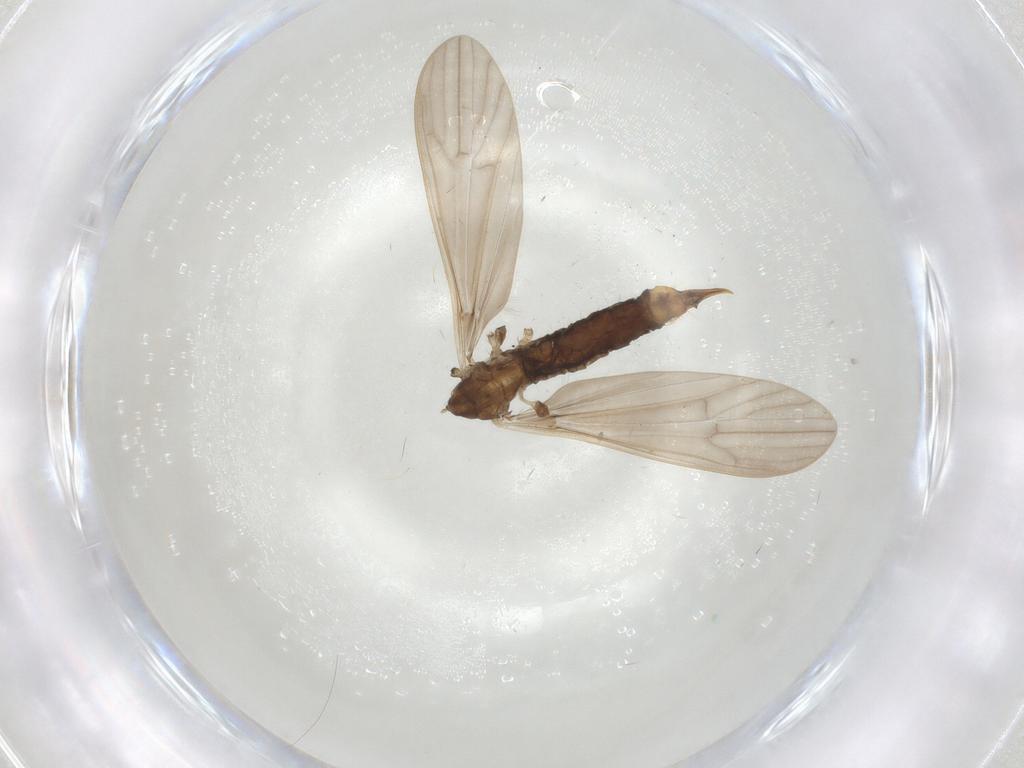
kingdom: Animalia
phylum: Arthropoda
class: Insecta
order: Diptera
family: Limoniidae
